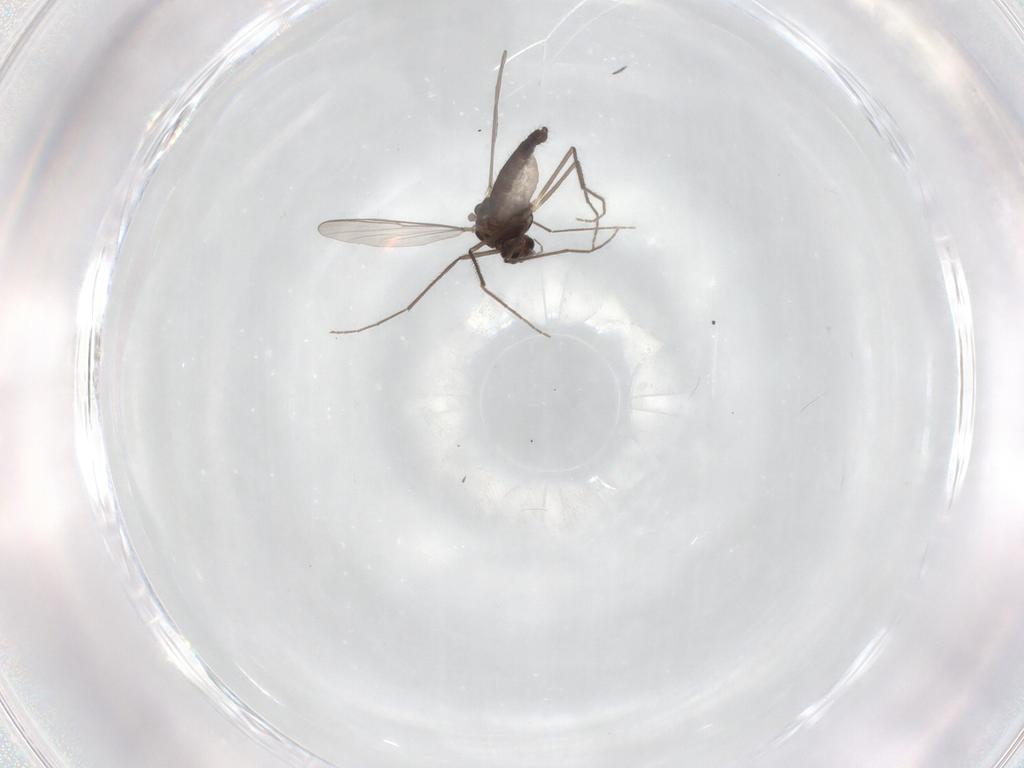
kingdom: Animalia
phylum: Arthropoda
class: Insecta
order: Diptera
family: Chironomidae
